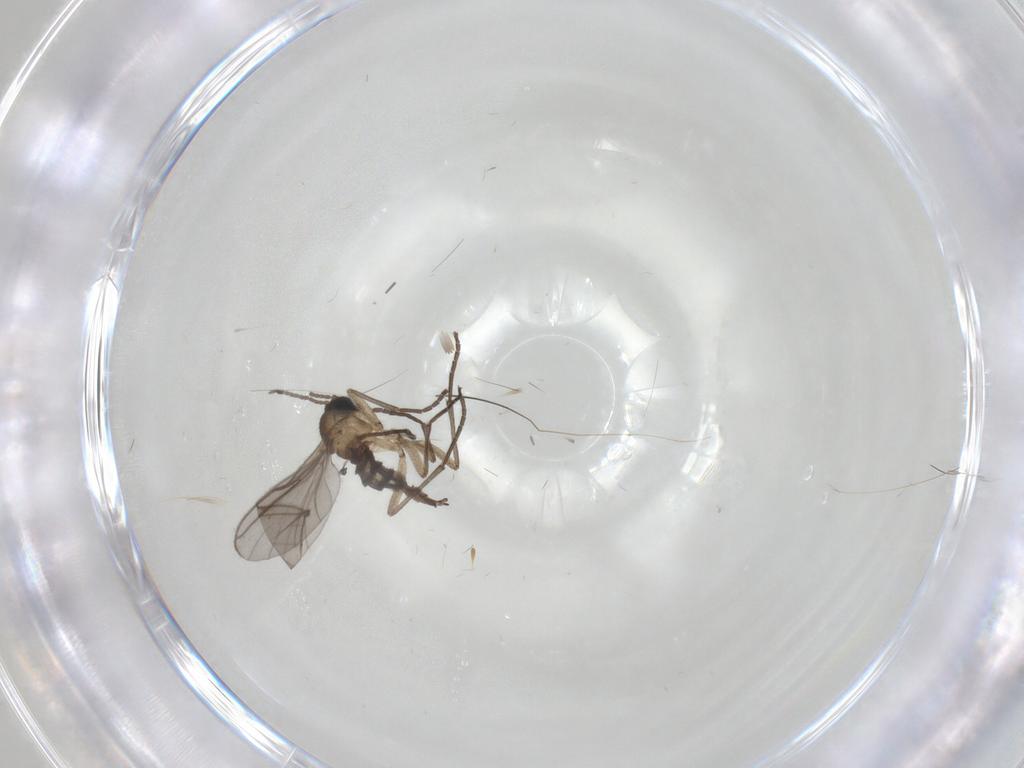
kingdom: Animalia
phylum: Arthropoda
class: Insecta
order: Diptera
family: Sciaridae
